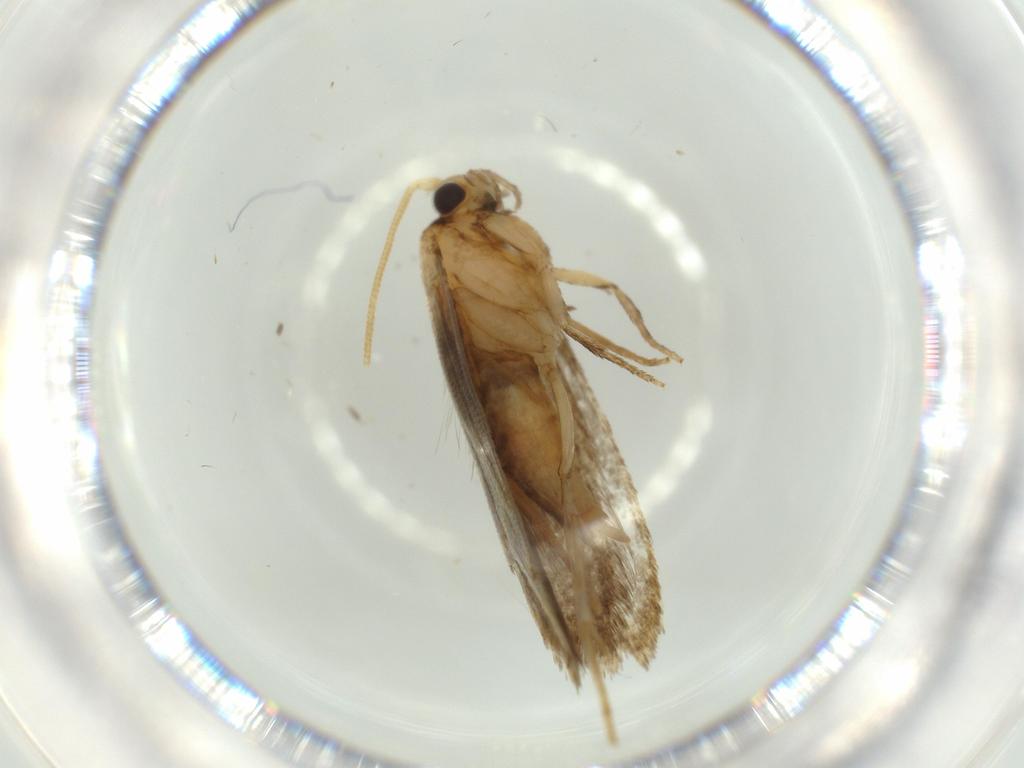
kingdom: Animalia
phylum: Arthropoda
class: Insecta
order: Lepidoptera
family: Tineidae
